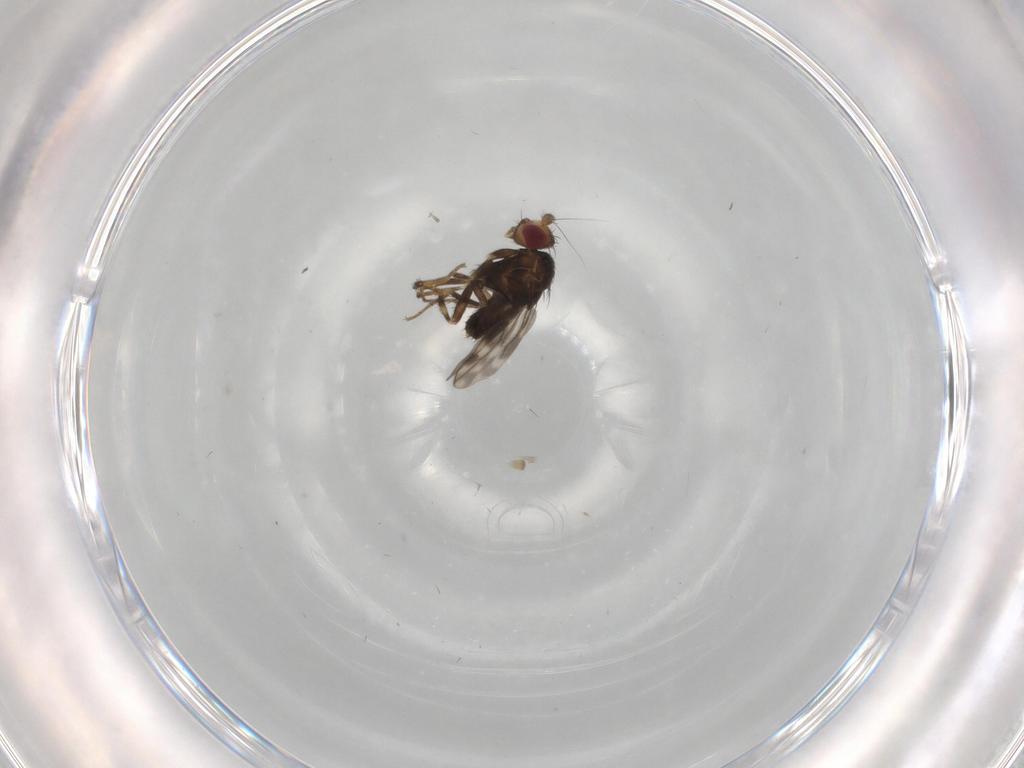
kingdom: Animalia
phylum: Arthropoda
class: Insecta
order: Diptera
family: Sphaeroceridae
